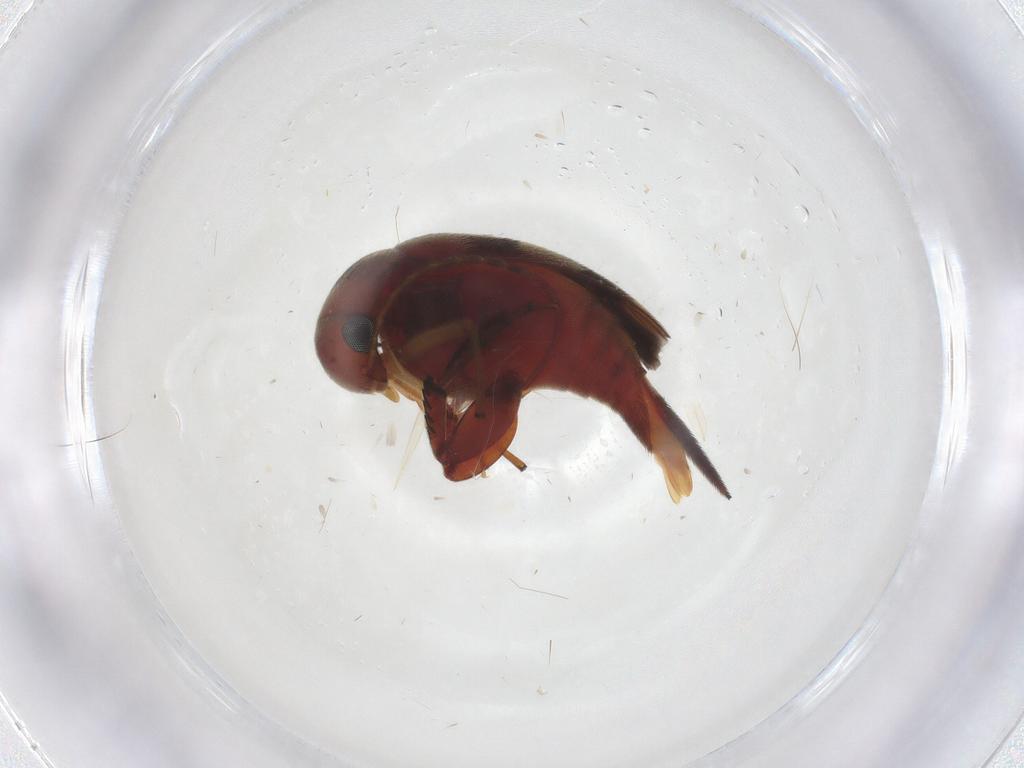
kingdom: Animalia
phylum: Arthropoda
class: Insecta
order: Coleoptera
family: Mordellidae
